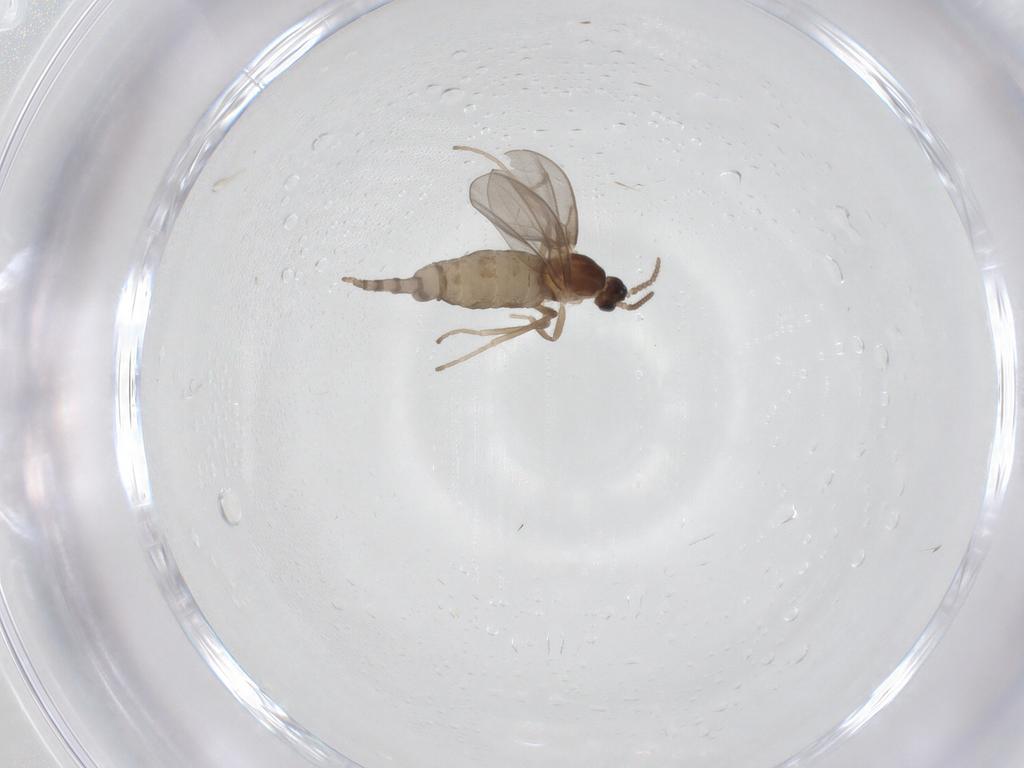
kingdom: Animalia
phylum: Arthropoda
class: Insecta
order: Diptera
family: Cecidomyiidae
